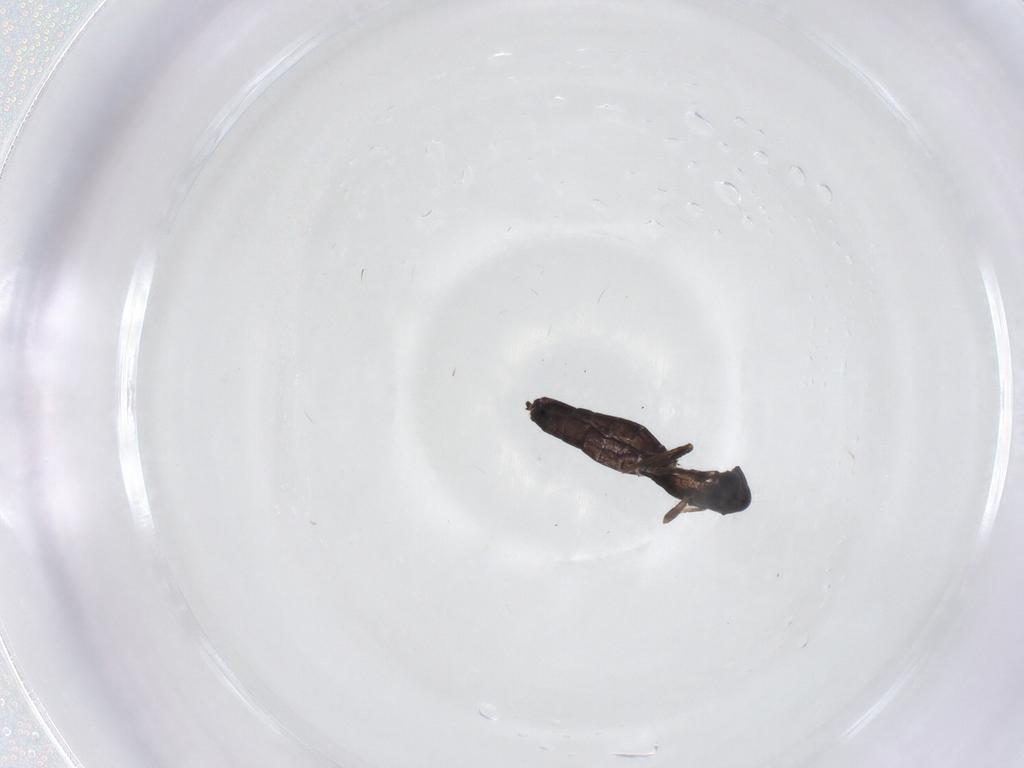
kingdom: Animalia
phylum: Arthropoda
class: Insecta
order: Diptera
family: Chironomidae
